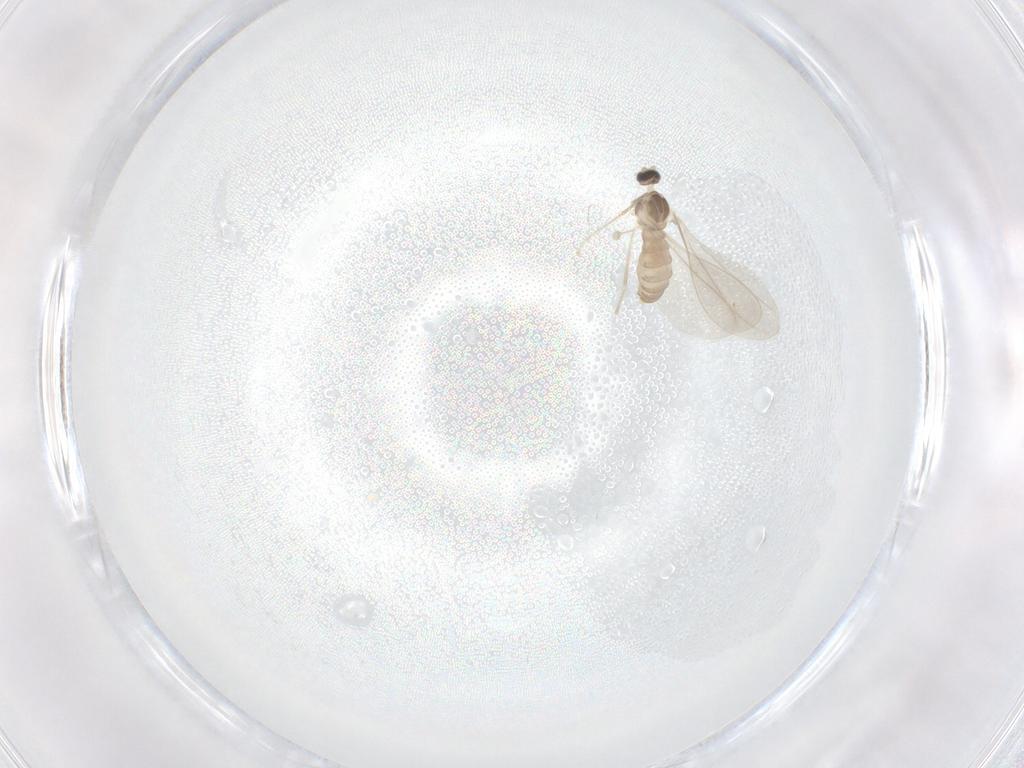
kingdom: Animalia
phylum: Arthropoda
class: Insecta
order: Diptera
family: Cecidomyiidae
